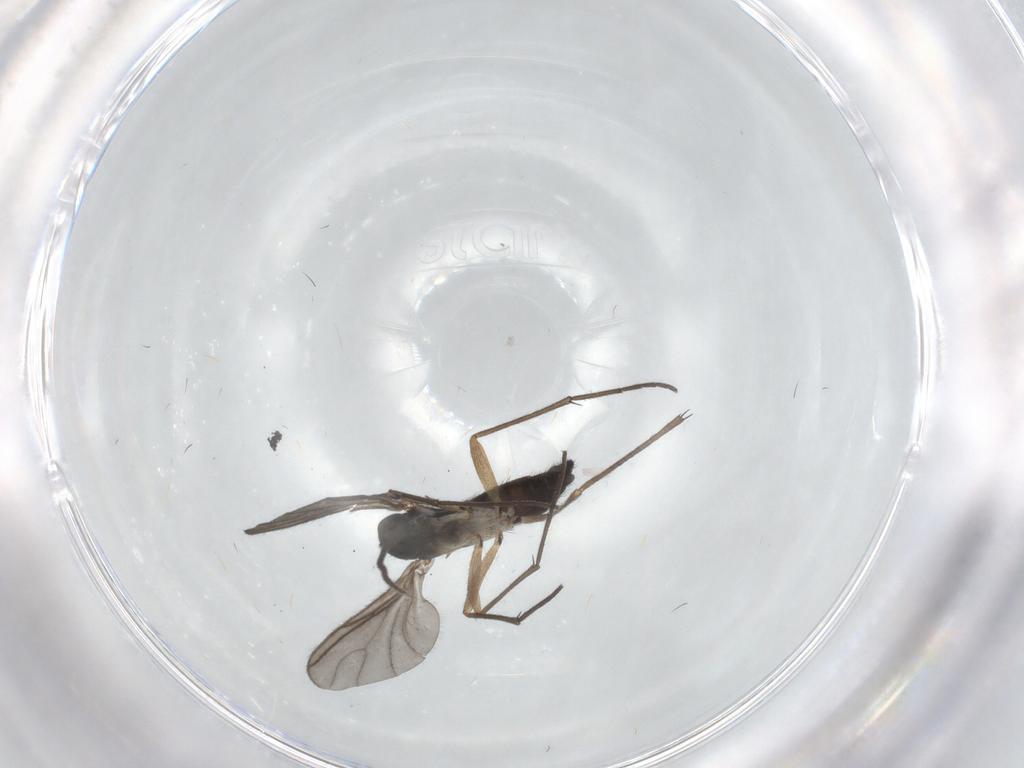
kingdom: Animalia
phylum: Arthropoda
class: Insecta
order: Diptera
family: Sciaridae
